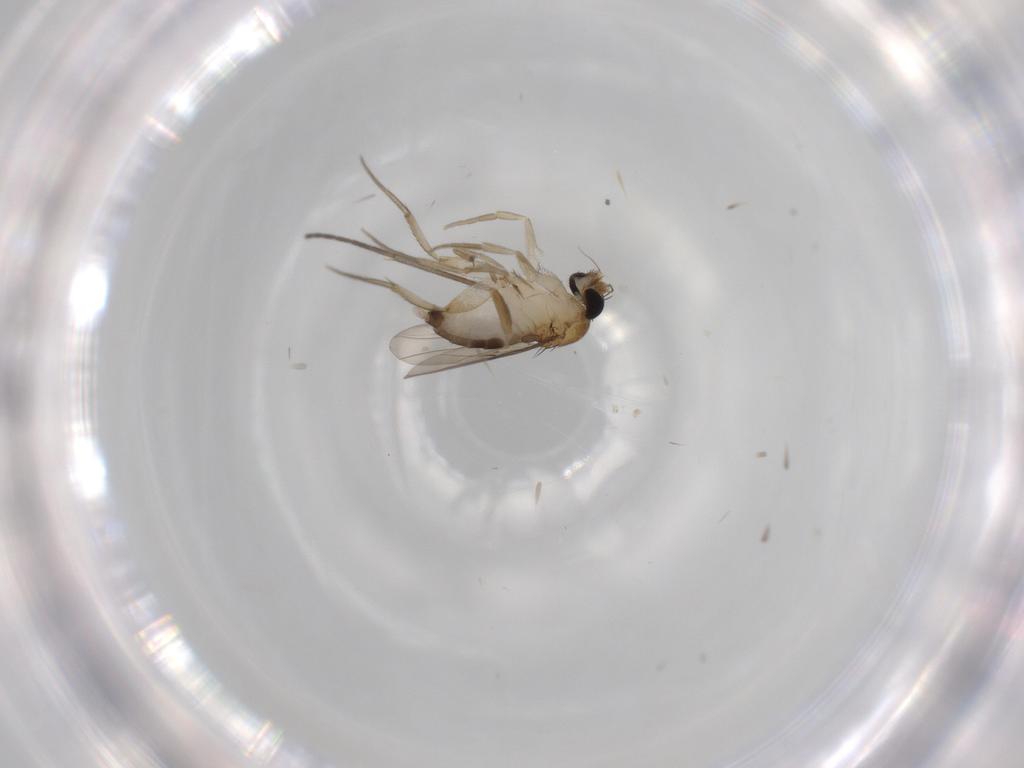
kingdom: Animalia
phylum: Arthropoda
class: Insecta
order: Diptera
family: Sciaridae
